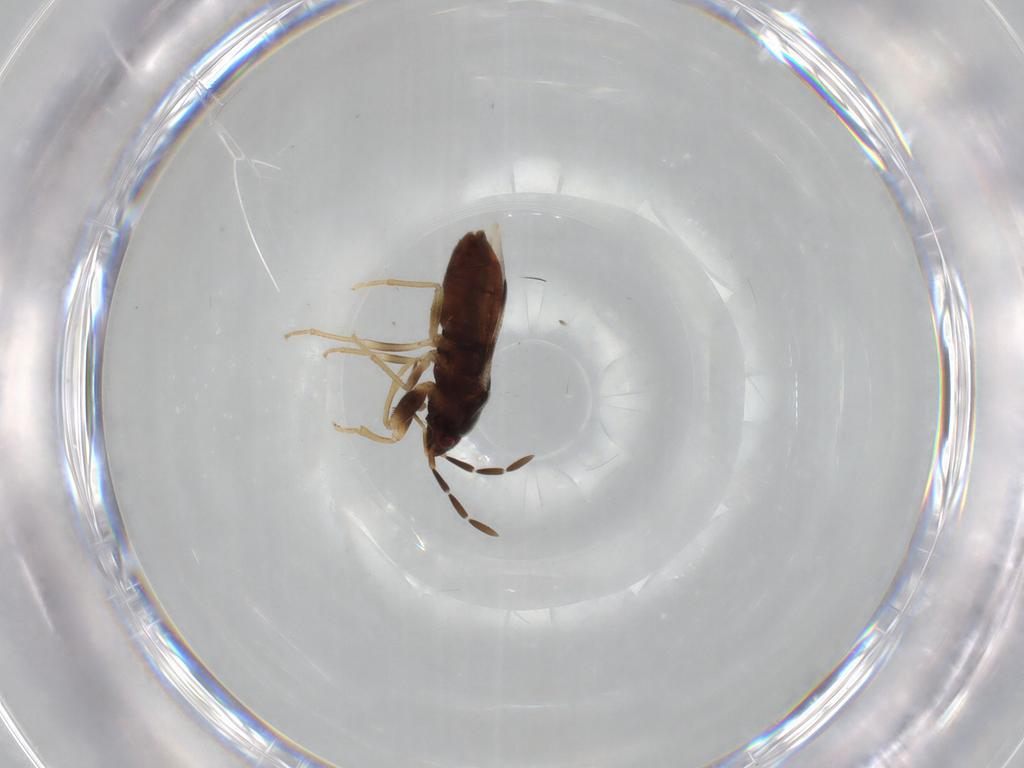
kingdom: Animalia
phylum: Arthropoda
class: Insecta
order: Hemiptera
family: Rhyparochromidae
